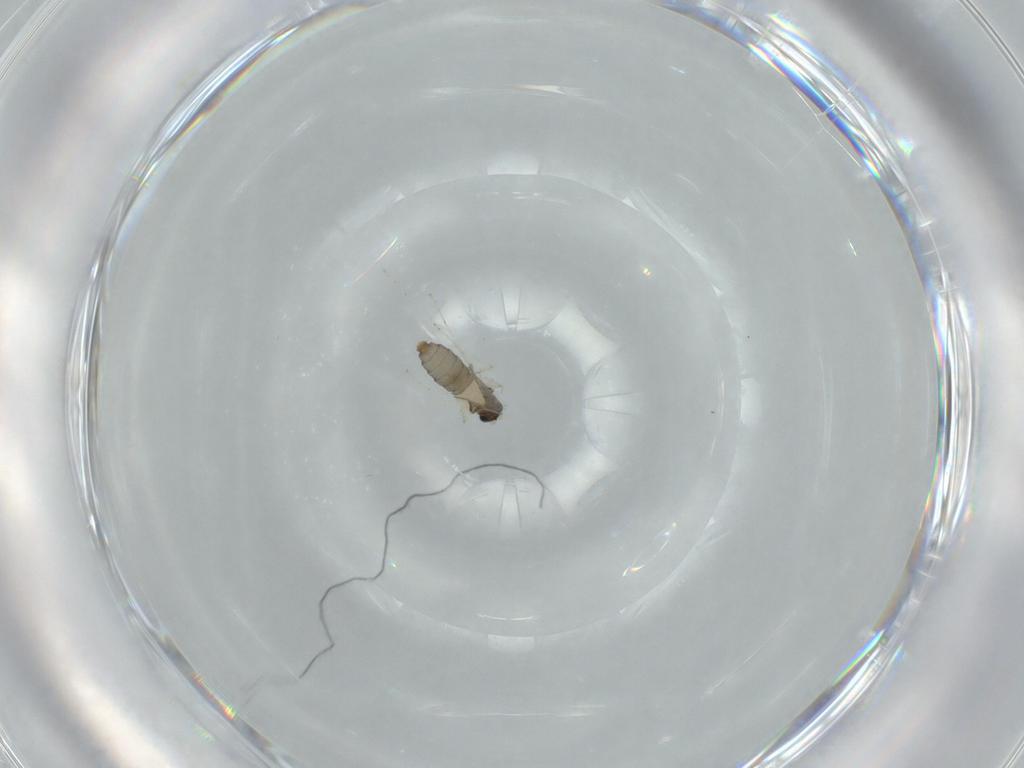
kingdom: Animalia
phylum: Arthropoda
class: Insecta
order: Diptera
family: Cecidomyiidae
